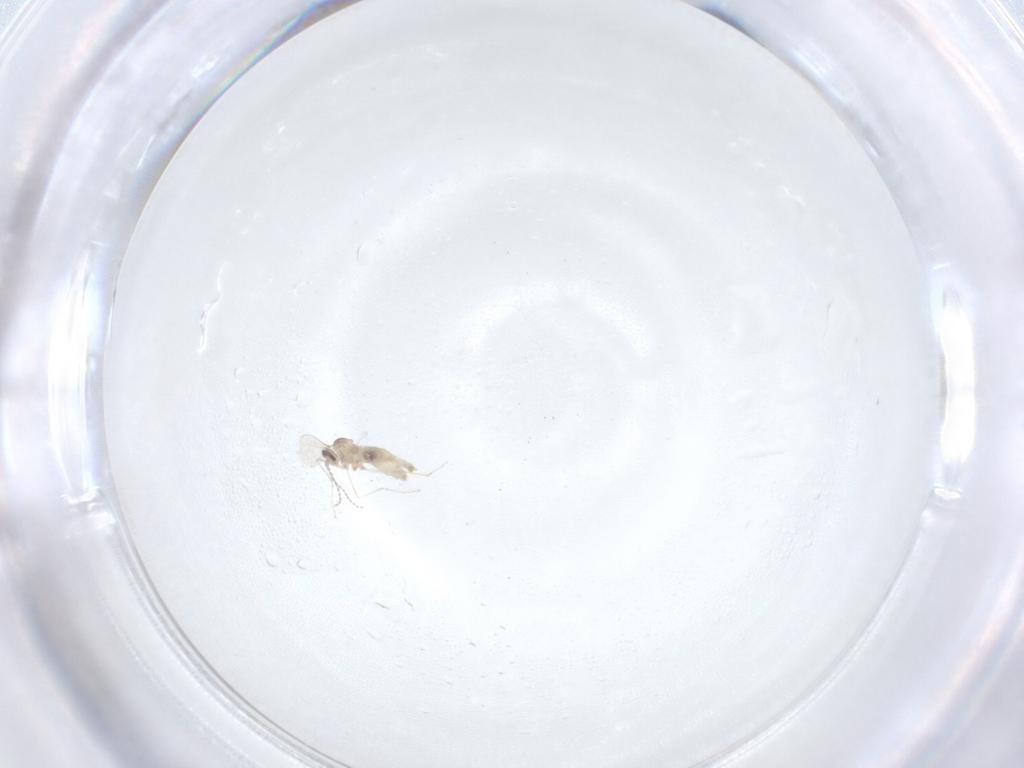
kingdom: Animalia
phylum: Arthropoda
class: Insecta
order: Diptera
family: Cecidomyiidae
